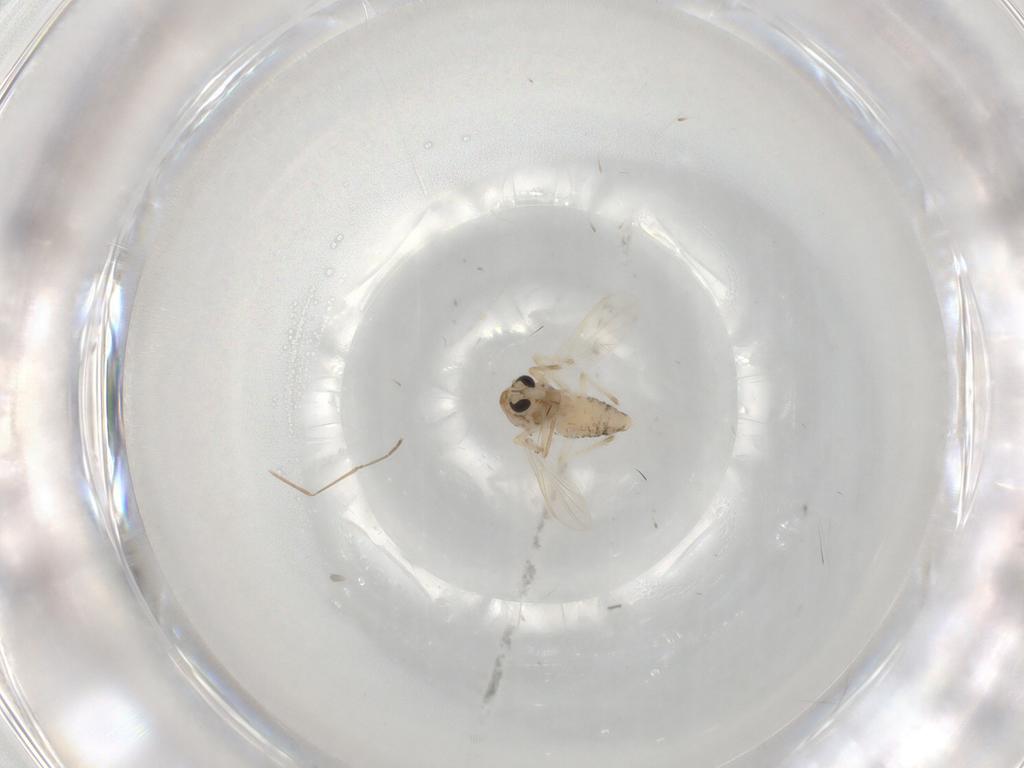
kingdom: Animalia
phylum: Arthropoda
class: Insecta
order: Diptera
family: Chironomidae
